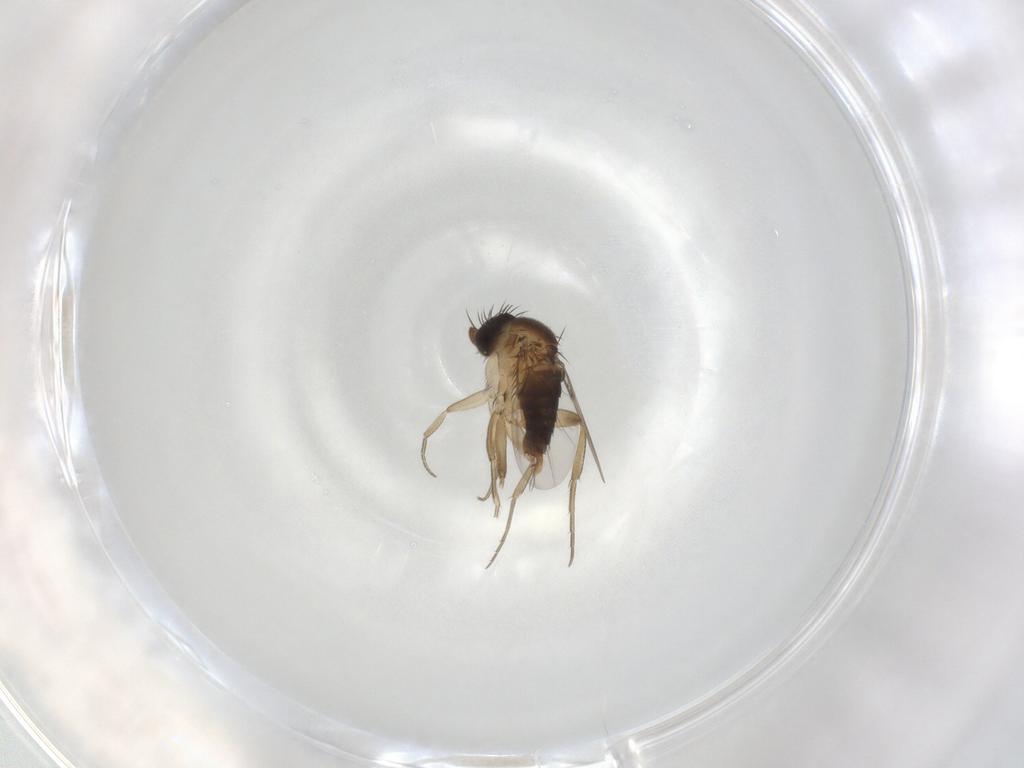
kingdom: Animalia
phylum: Arthropoda
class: Insecta
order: Diptera
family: Phoridae
